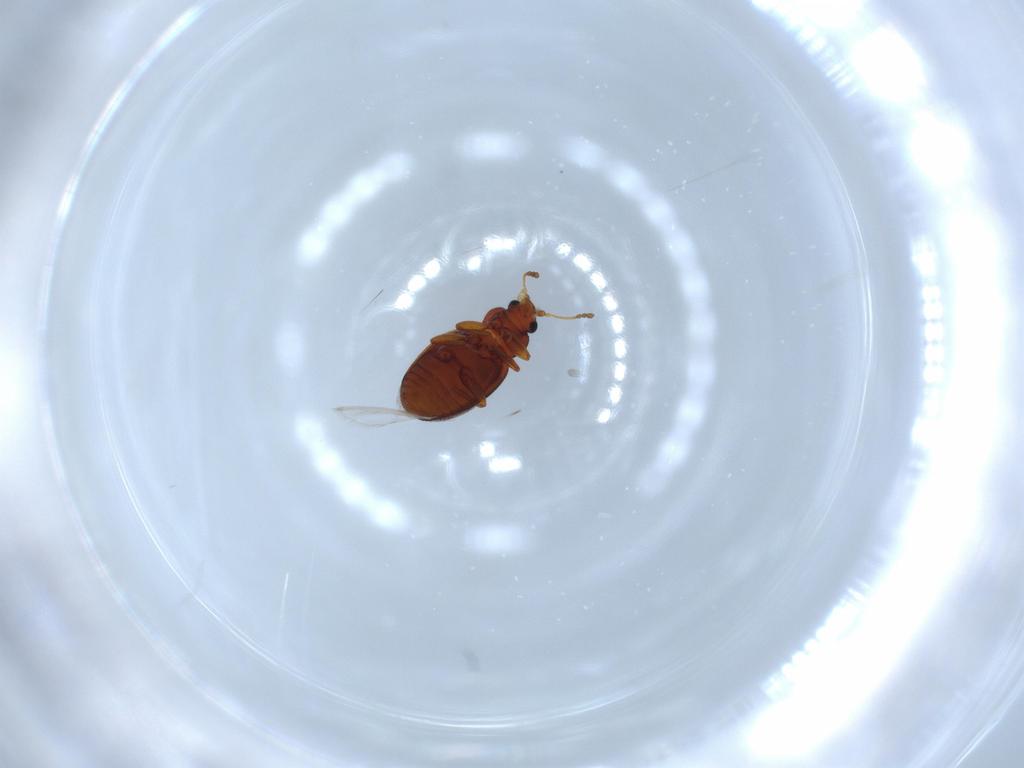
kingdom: Animalia
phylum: Arthropoda
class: Insecta
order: Coleoptera
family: Latridiidae
